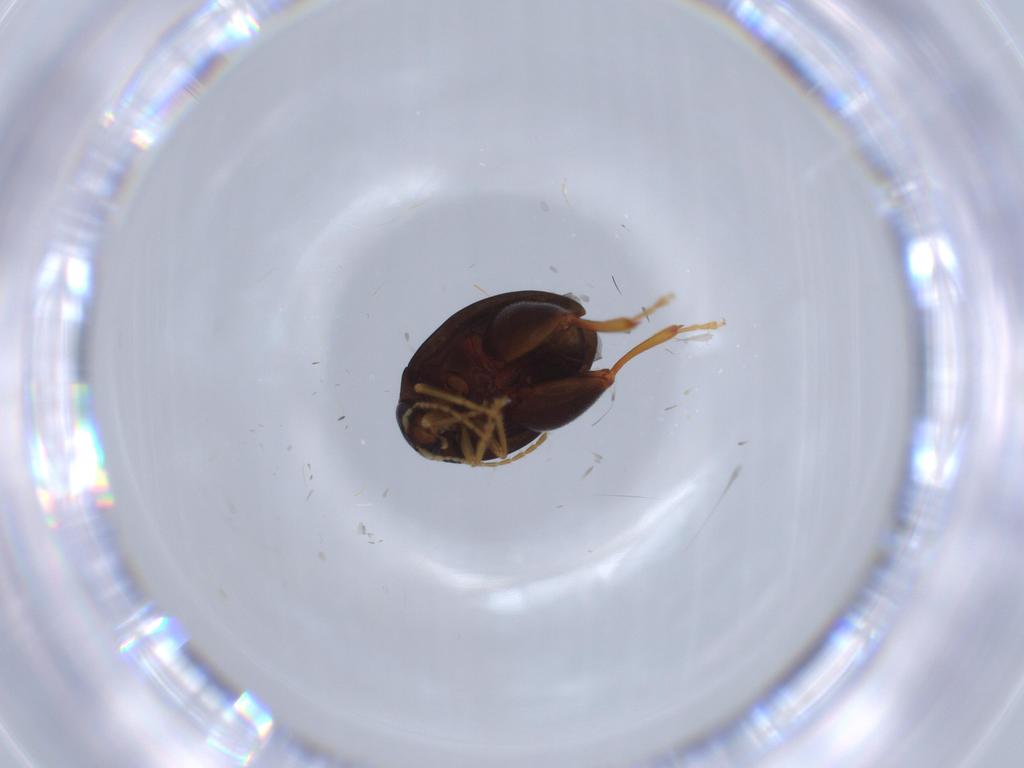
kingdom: Animalia
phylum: Arthropoda
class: Insecta
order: Coleoptera
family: Chrysomelidae
